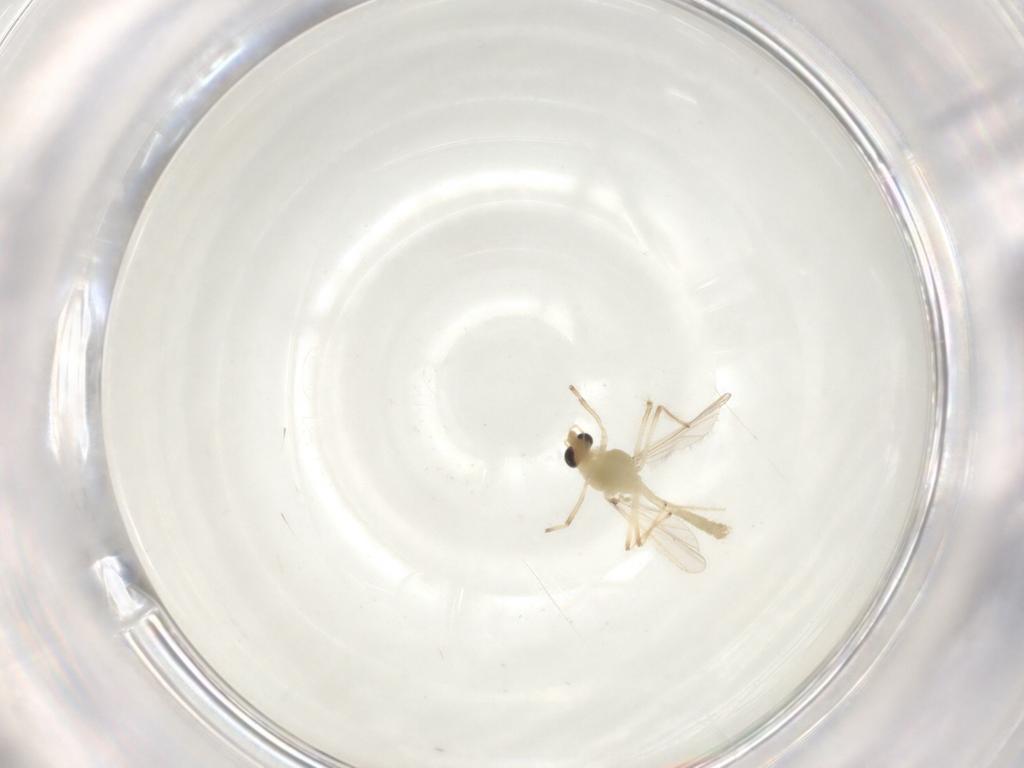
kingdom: Animalia
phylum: Arthropoda
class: Insecta
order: Diptera
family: Chironomidae
